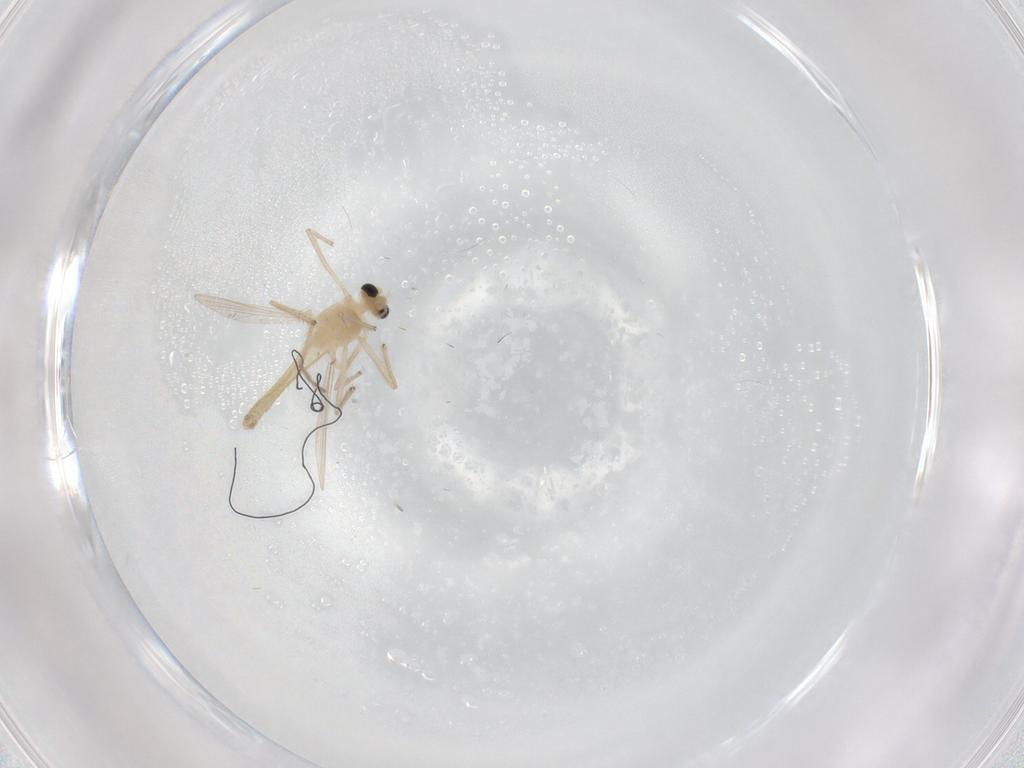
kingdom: Animalia
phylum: Arthropoda
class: Insecta
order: Diptera
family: Chironomidae
